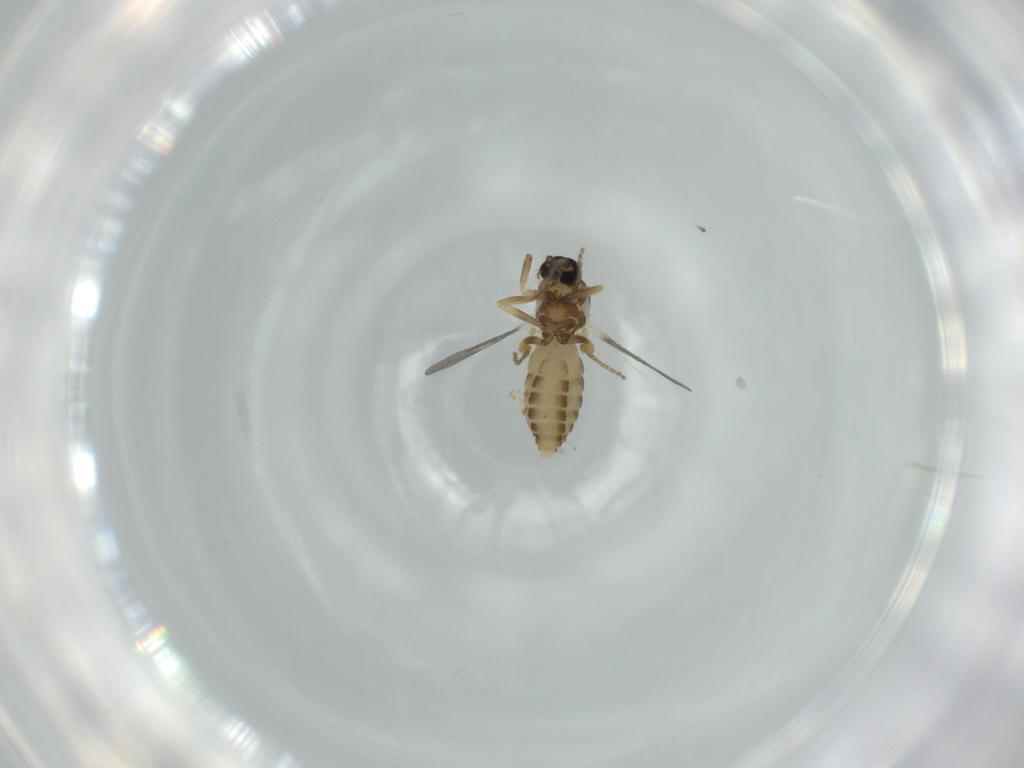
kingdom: Animalia
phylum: Arthropoda
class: Insecta
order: Diptera
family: Ceratopogonidae
